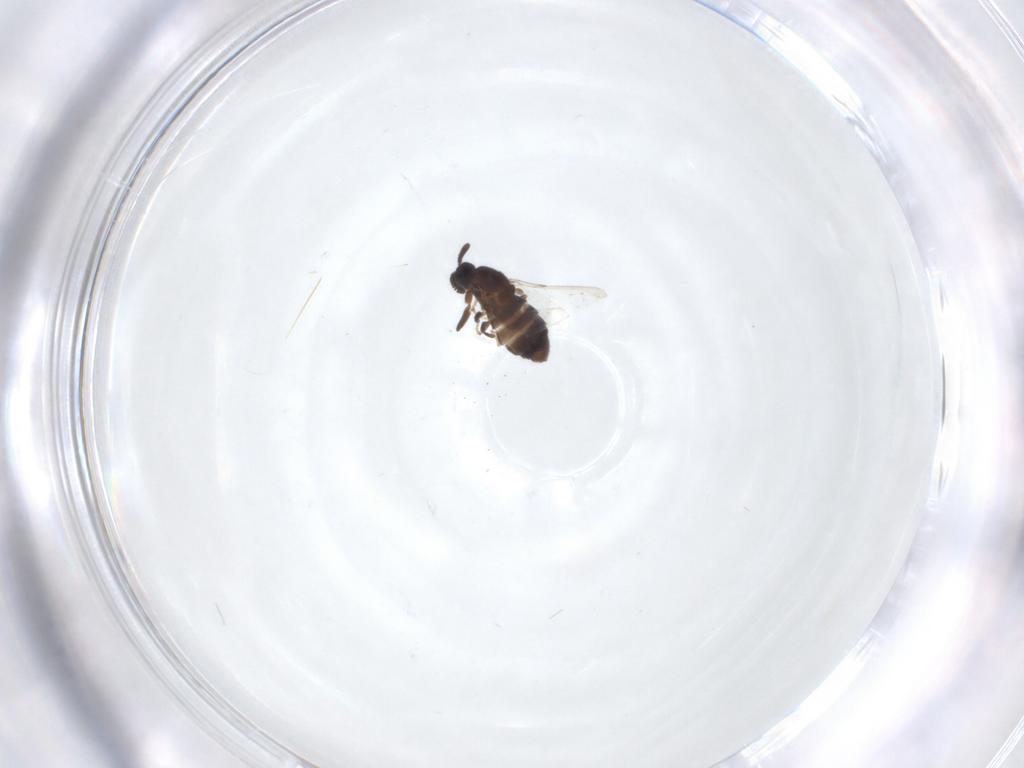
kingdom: Animalia
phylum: Arthropoda
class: Insecta
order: Diptera
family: Scatopsidae
